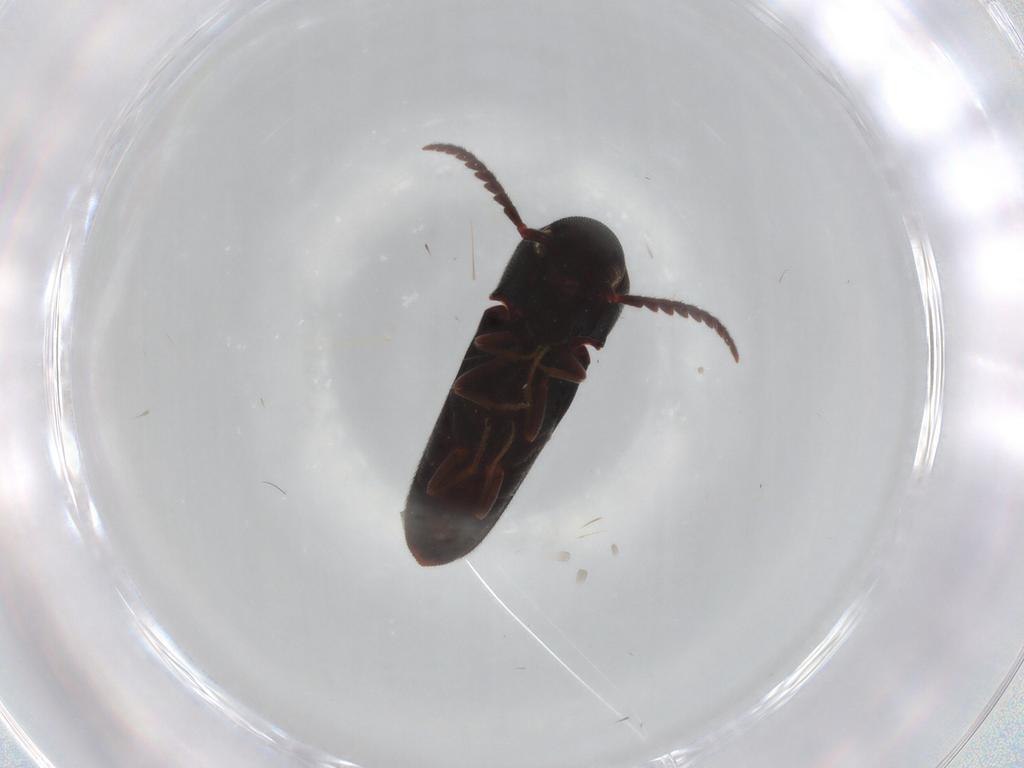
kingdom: Animalia
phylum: Arthropoda
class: Insecta
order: Coleoptera
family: Eucnemidae
